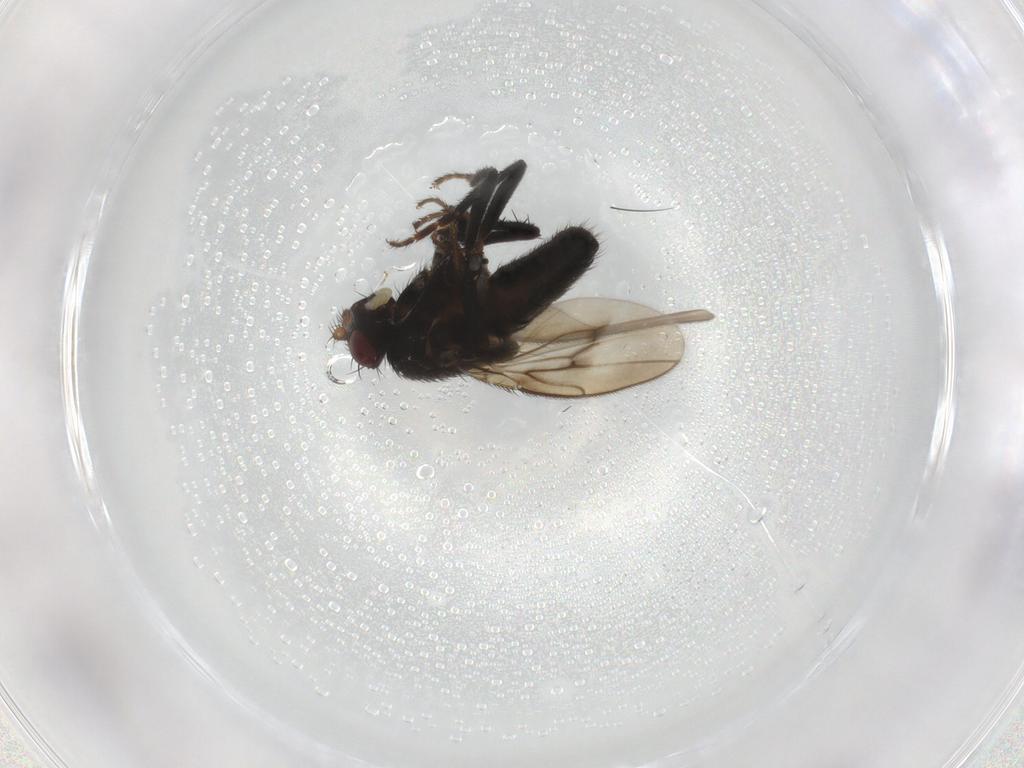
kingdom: Animalia
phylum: Arthropoda
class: Insecta
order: Diptera
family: Sphaeroceridae
